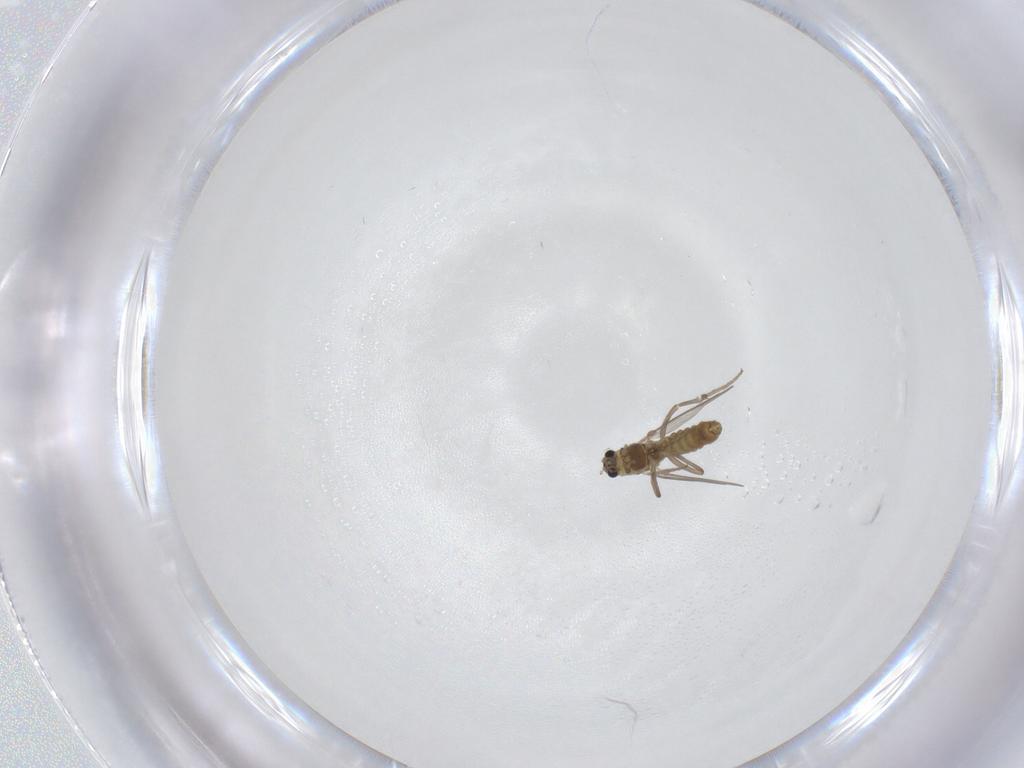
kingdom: Animalia
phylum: Arthropoda
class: Insecta
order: Diptera
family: Chironomidae
